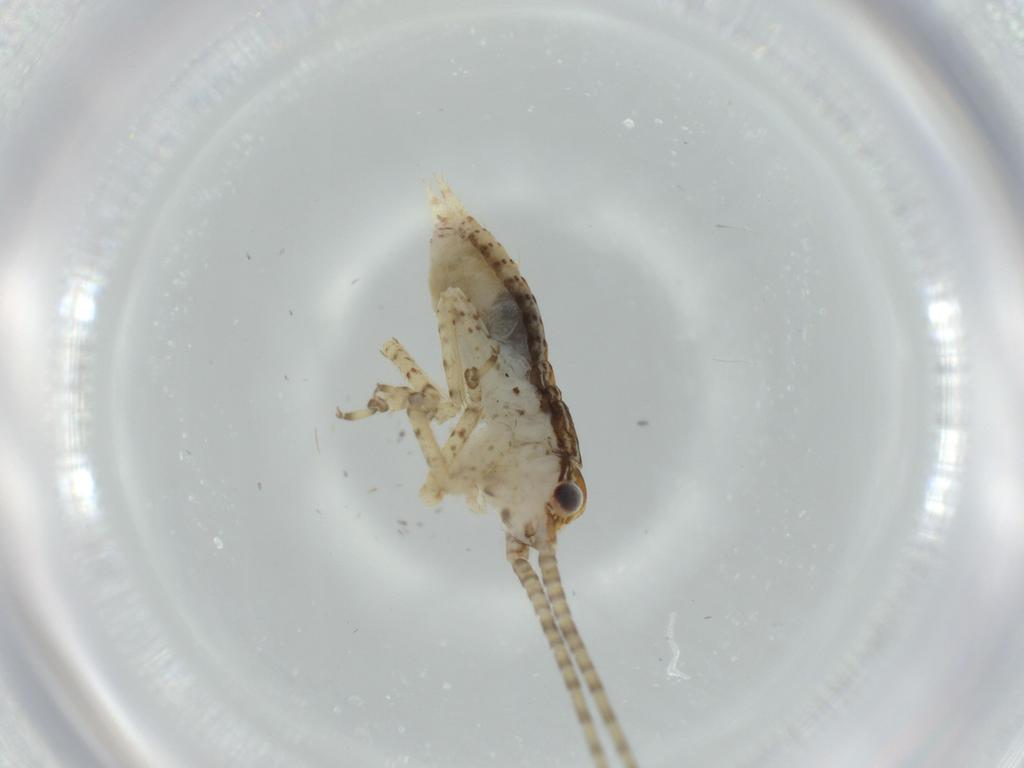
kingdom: Animalia
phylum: Arthropoda
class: Insecta
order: Orthoptera
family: Gryllidae
